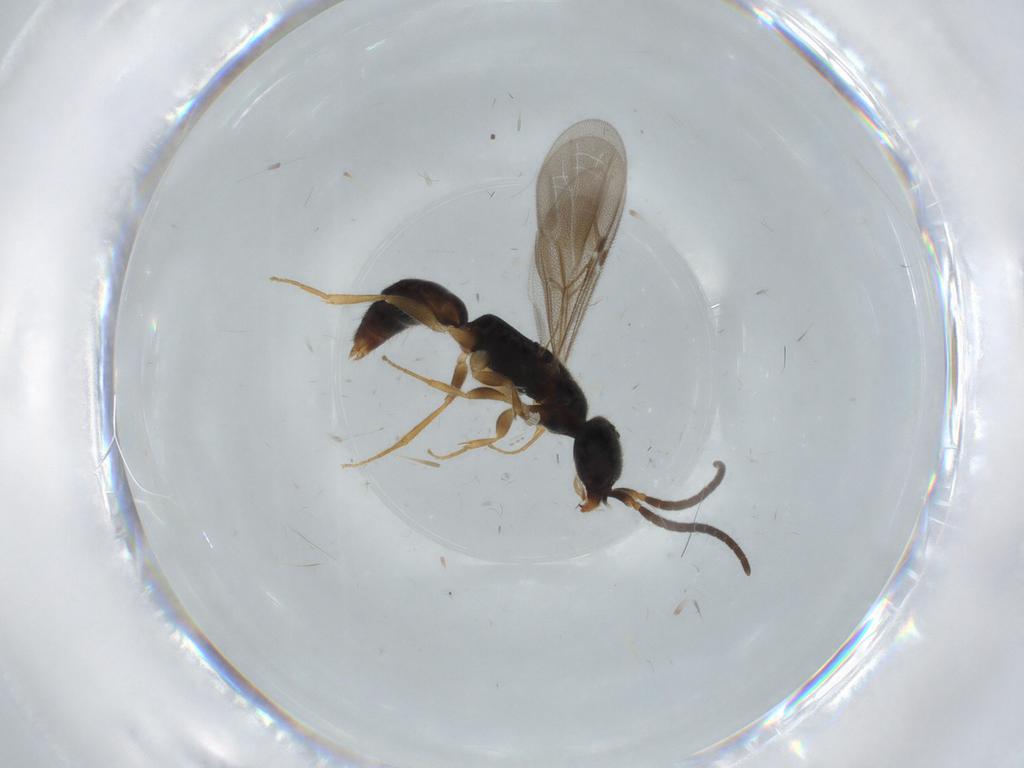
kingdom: Animalia
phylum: Arthropoda
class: Insecta
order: Hymenoptera
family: Bethylidae
